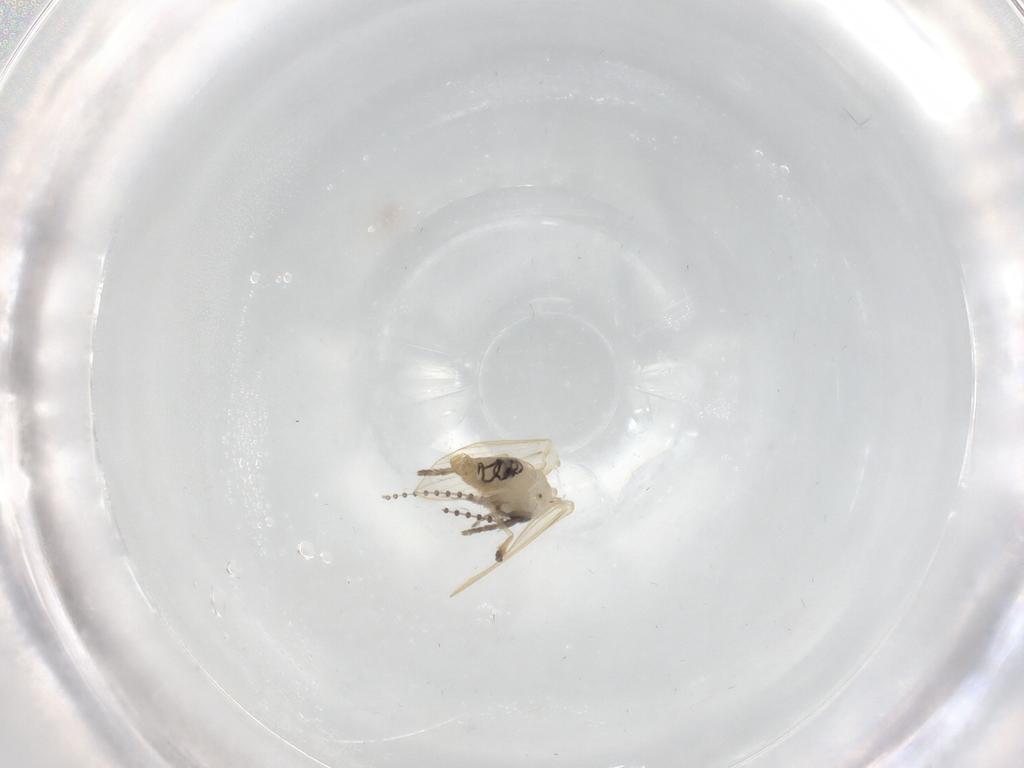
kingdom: Animalia
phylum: Arthropoda
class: Insecta
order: Diptera
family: Psychodidae
